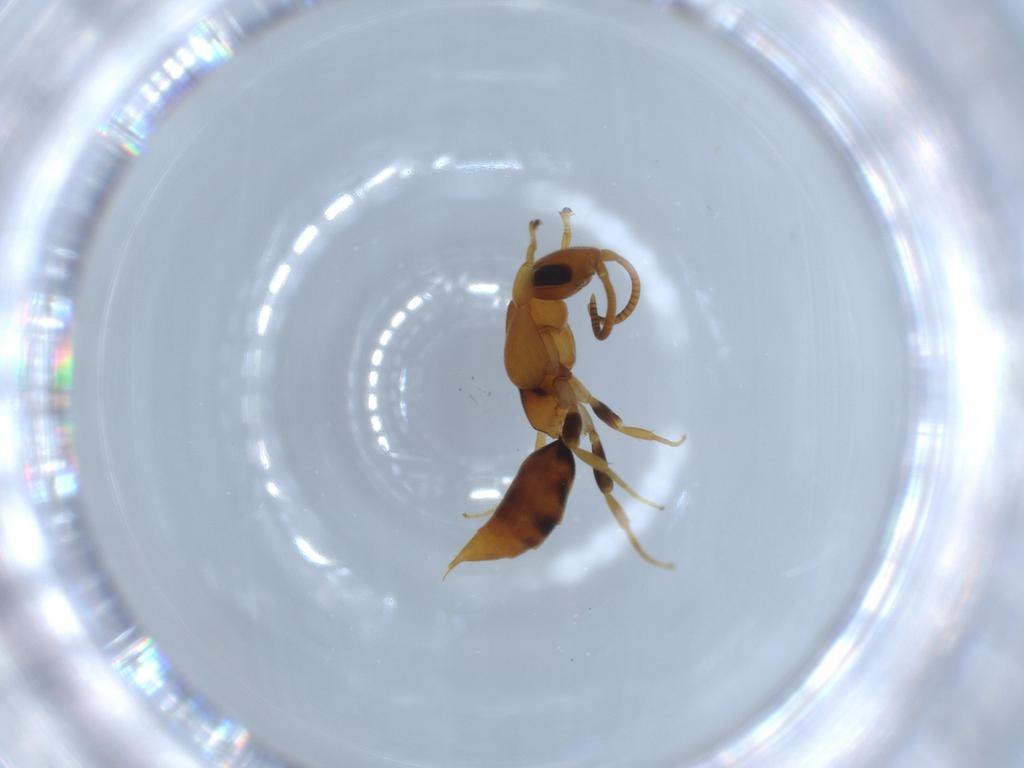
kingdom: Animalia
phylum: Arthropoda
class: Insecta
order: Hymenoptera
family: Sclerogibbidae
